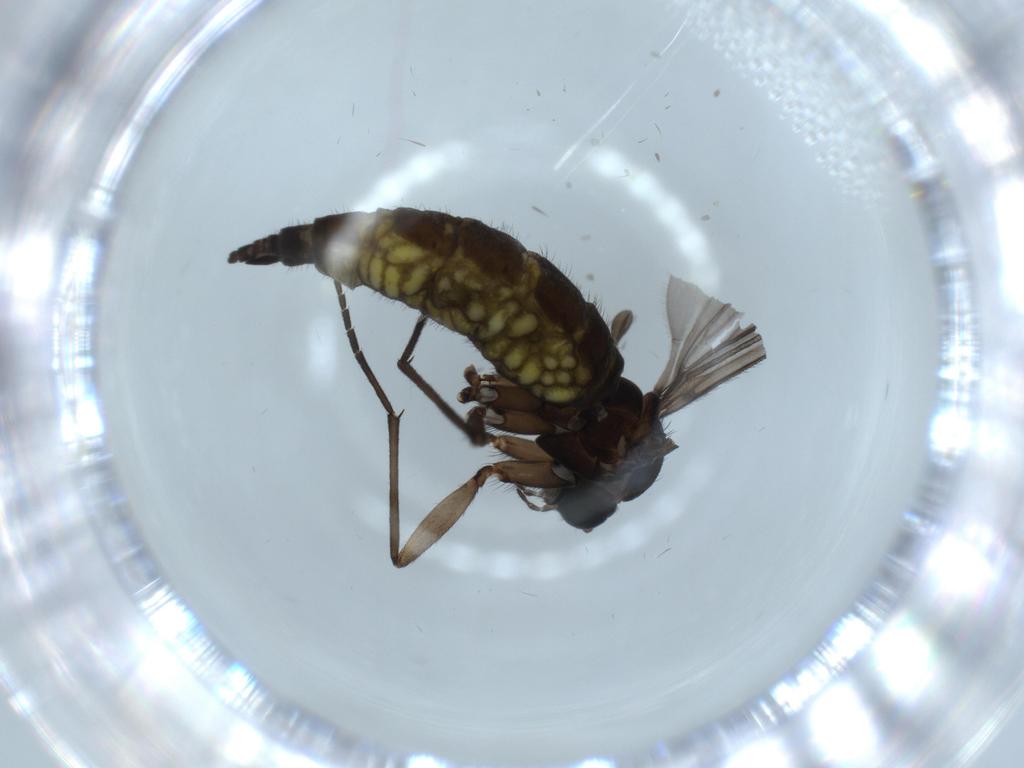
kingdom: Animalia
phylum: Arthropoda
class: Insecta
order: Diptera
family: Sciaridae
